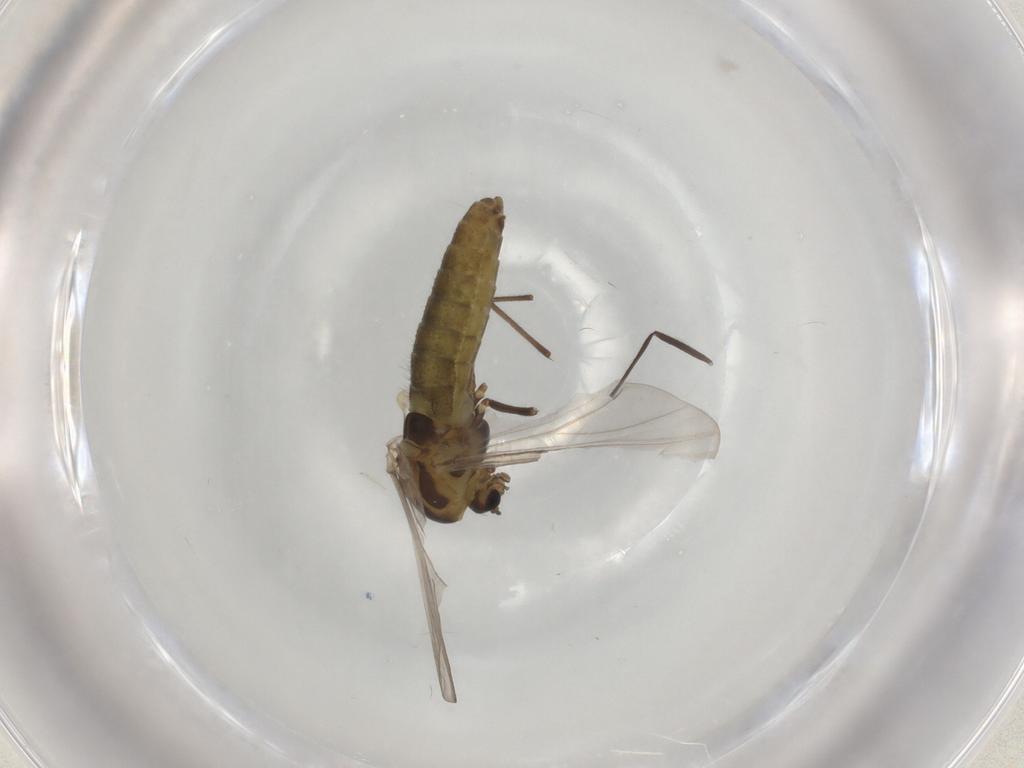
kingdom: Animalia
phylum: Arthropoda
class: Insecta
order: Diptera
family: Chironomidae
